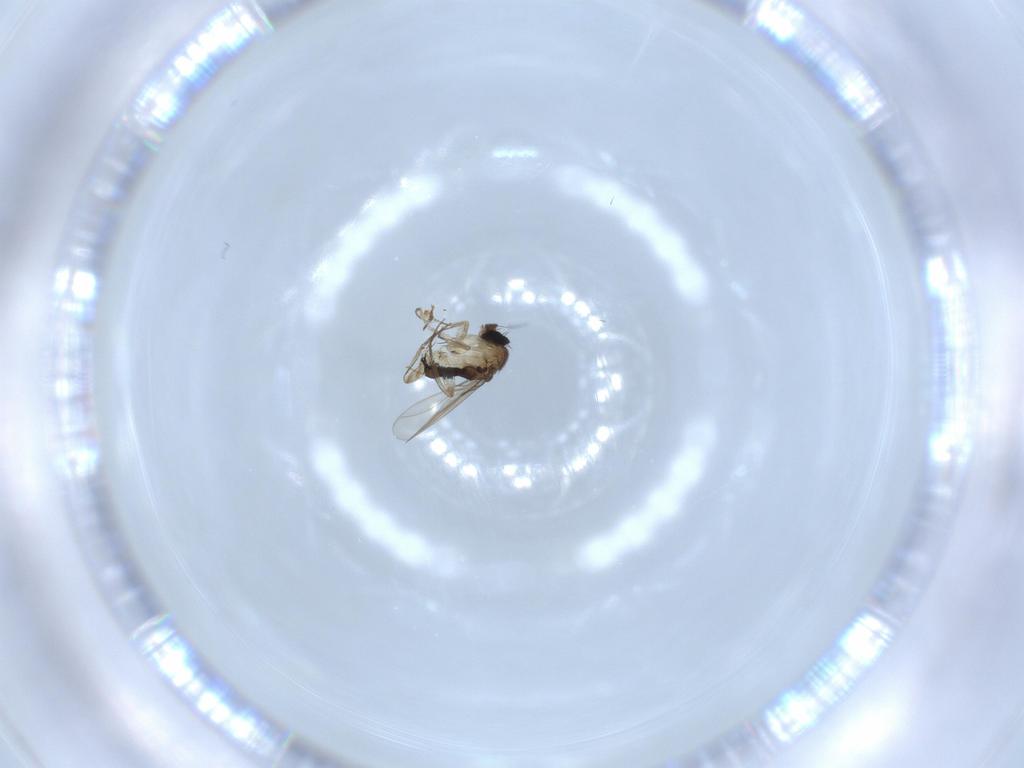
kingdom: Animalia
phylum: Arthropoda
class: Insecta
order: Diptera
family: Phoridae
